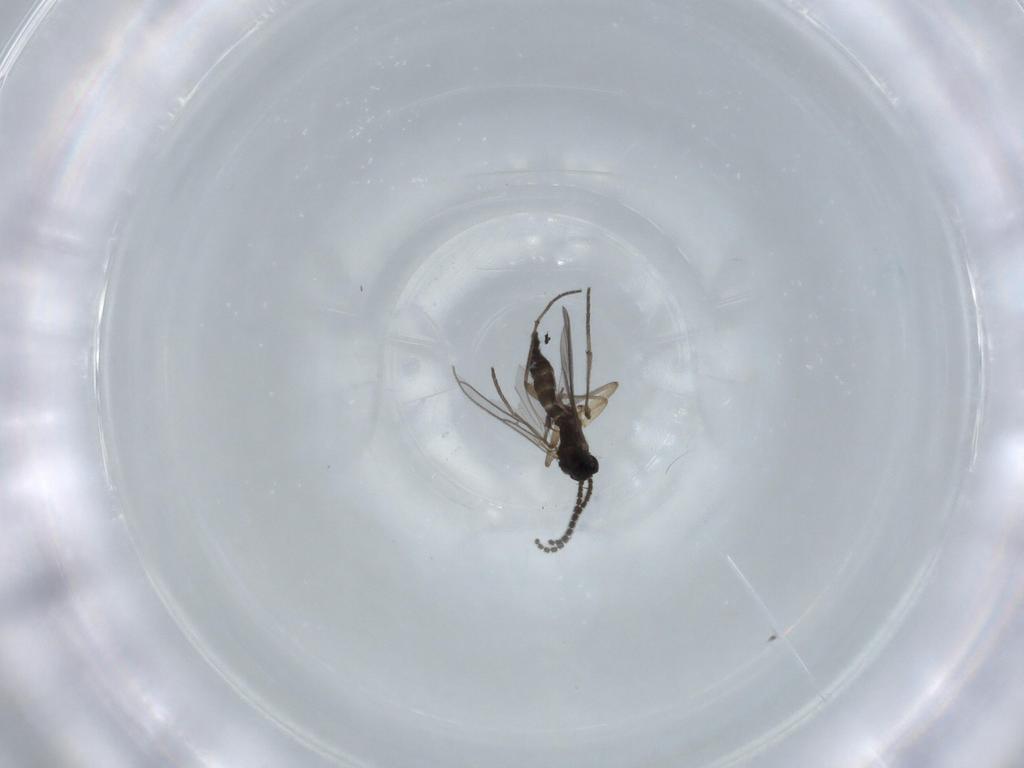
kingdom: Animalia
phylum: Arthropoda
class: Insecta
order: Diptera
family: Sciaridae
